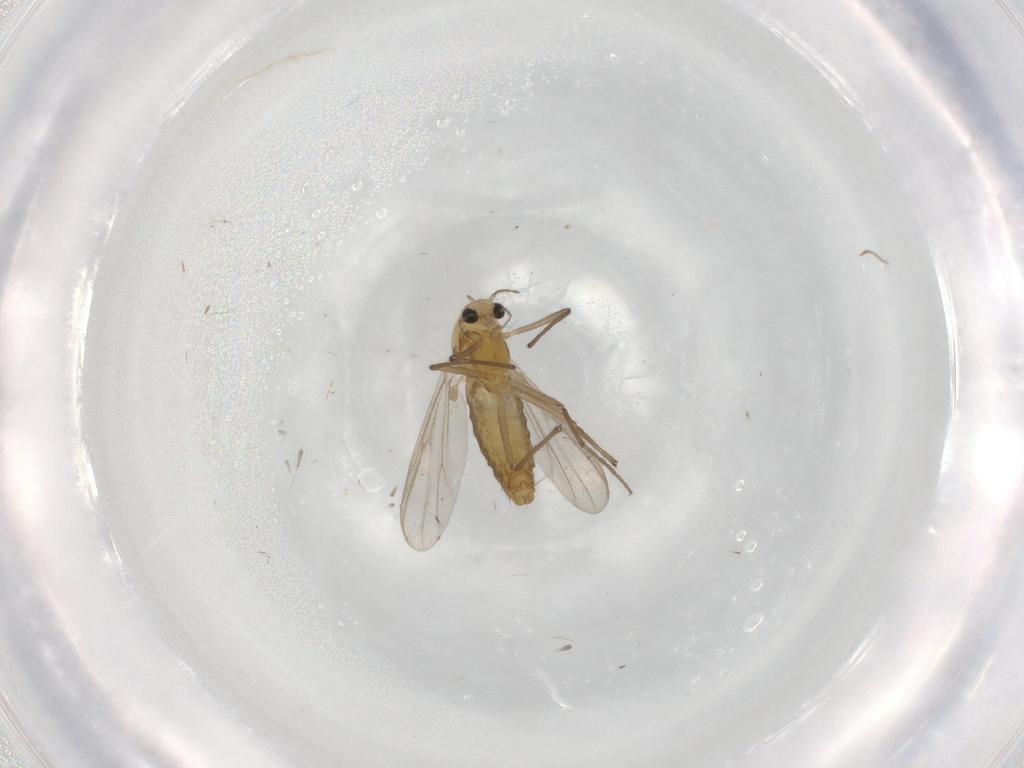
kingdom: Animalia
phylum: Arthropoda
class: Insecta
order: Diptera
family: Chironomidae
